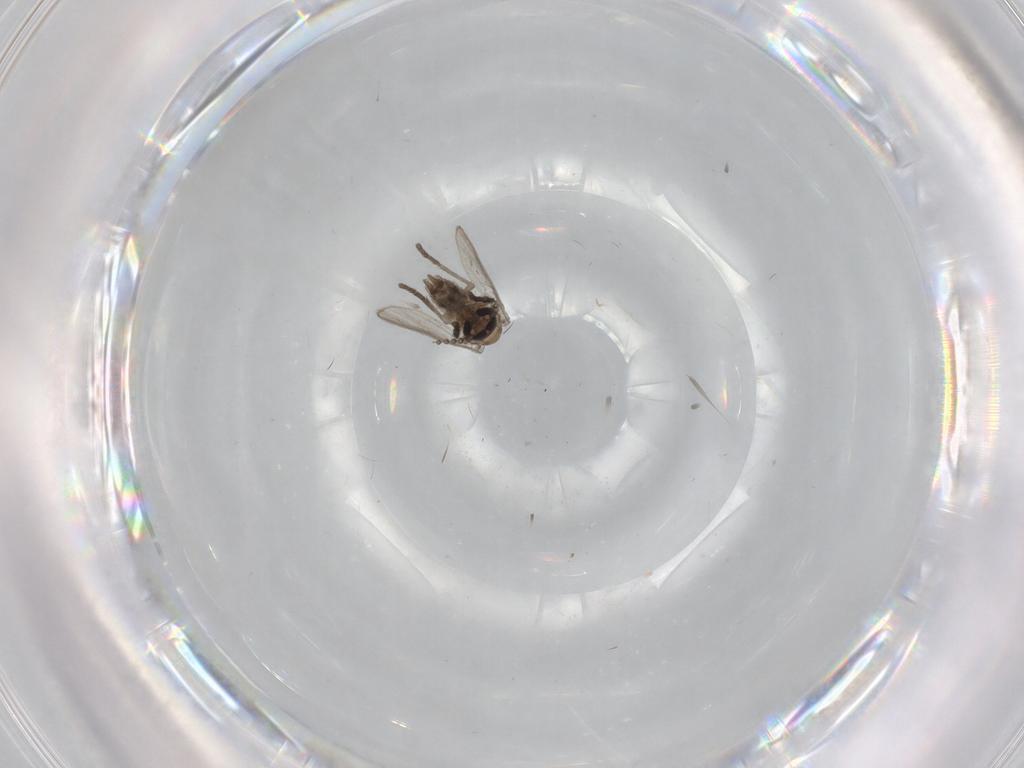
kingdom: Animalia
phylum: Arthropoda
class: Insecta
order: Diptera
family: Psychodidae
